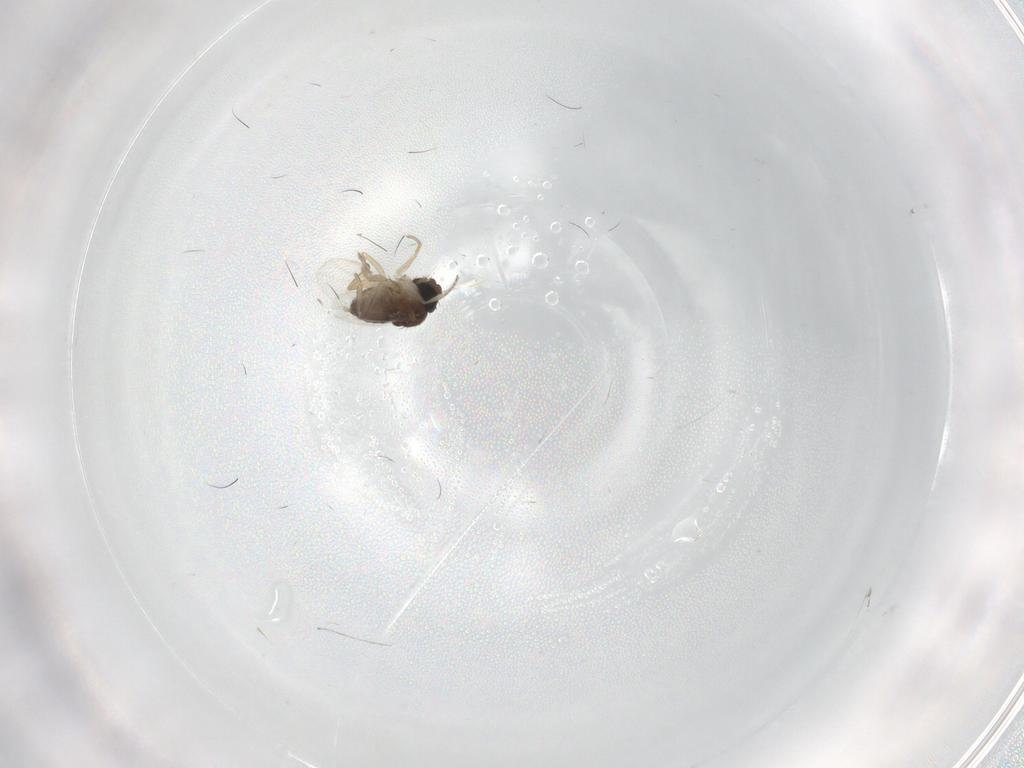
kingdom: Animalia
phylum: Arthropoda
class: Insecta
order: Diptera
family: Phoridae
